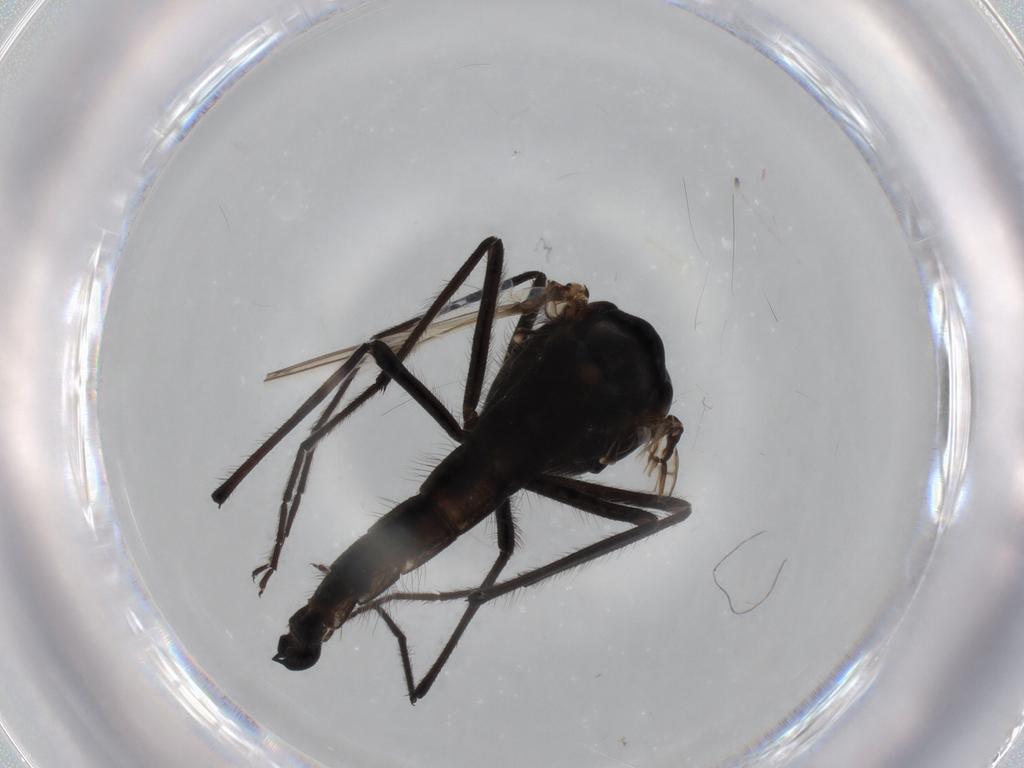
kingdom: Animalia
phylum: Arthropoda
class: Insecta
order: Diptera
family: Chironomidae
